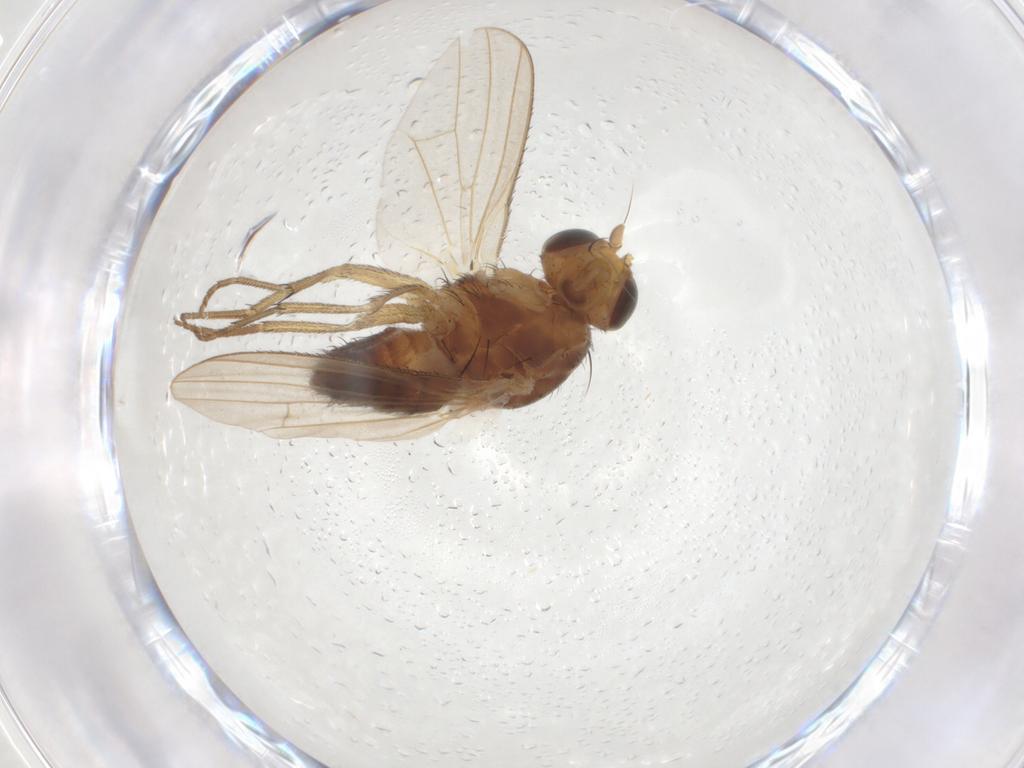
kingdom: Animalia
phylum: Arthropoda
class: Insecta
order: Diptera
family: Heleomyzidae
